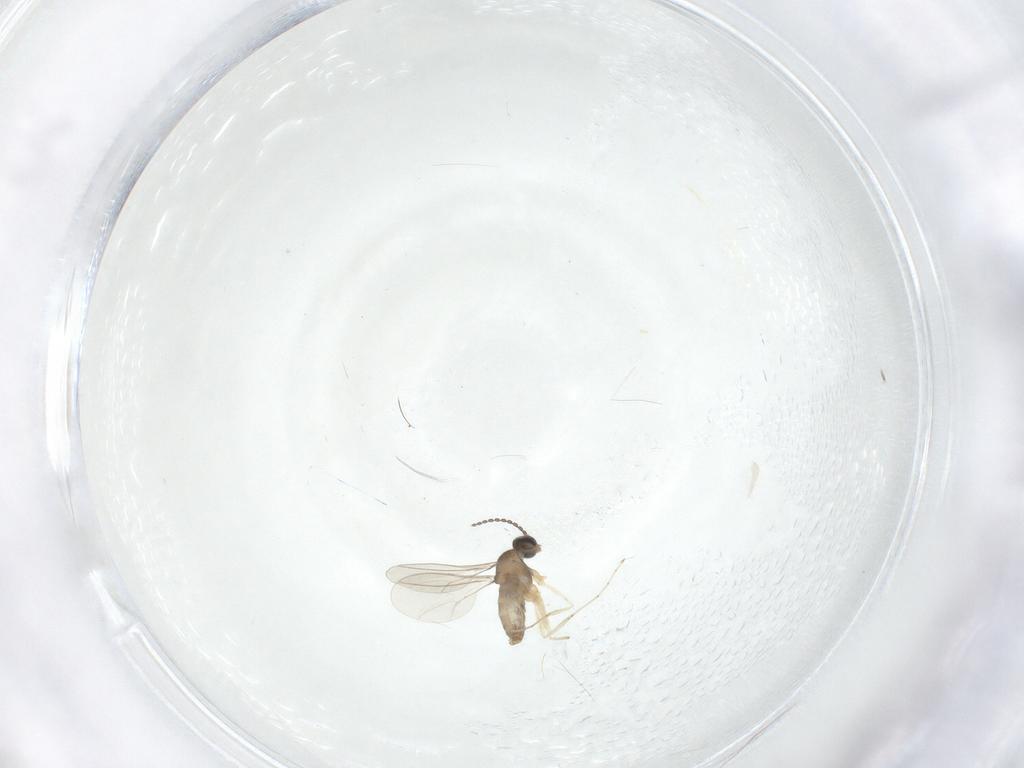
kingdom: Animalia
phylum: Arthropoda
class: Insecta
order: Diptera
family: Cecidomyiidae
